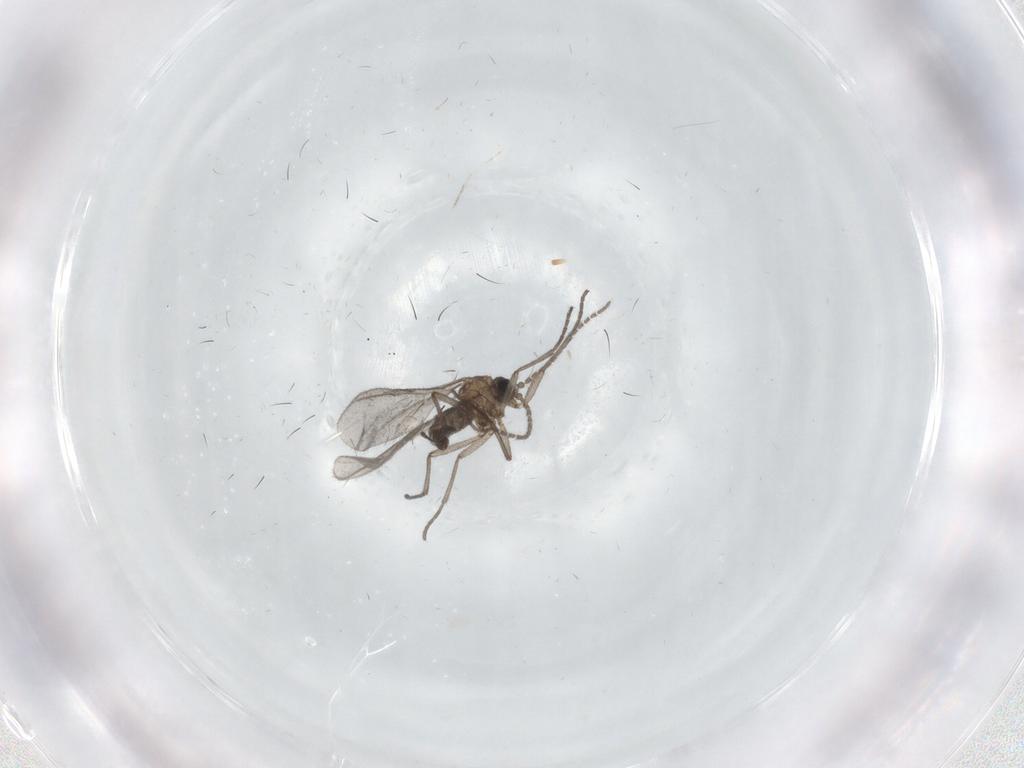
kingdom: Animalia
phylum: Arthropoda
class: Insecta
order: Diptera
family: Sciaridae
